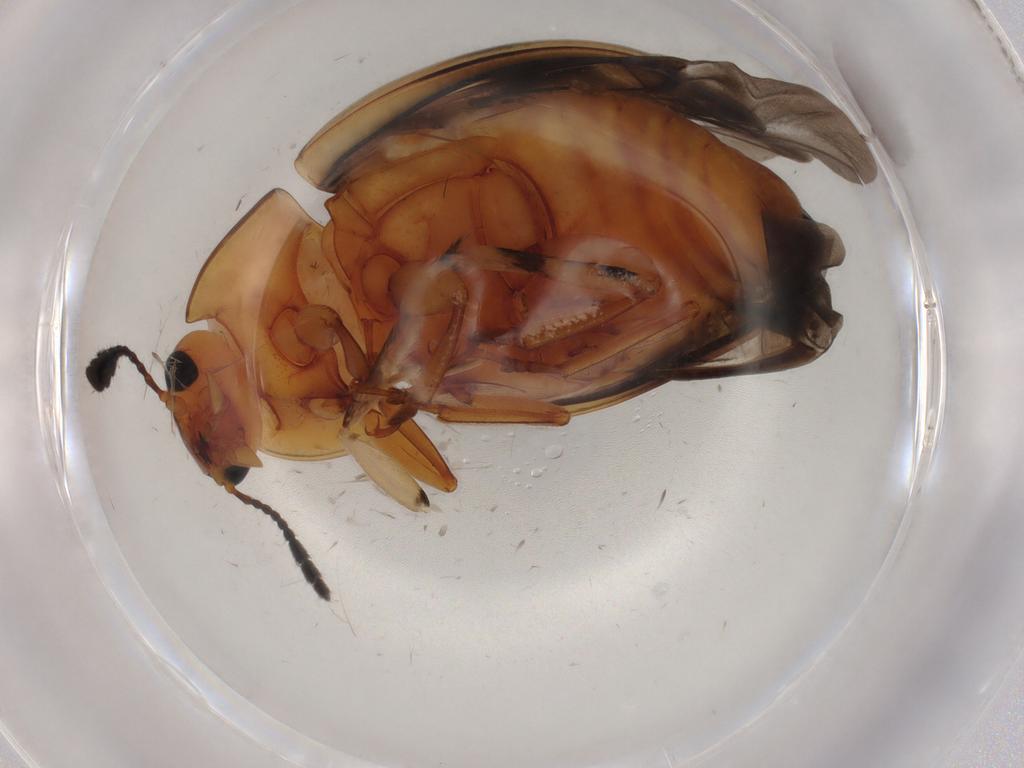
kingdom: Animalia
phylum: Arthropoda
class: Insecta
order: Coleoptera
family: Erotylidae
